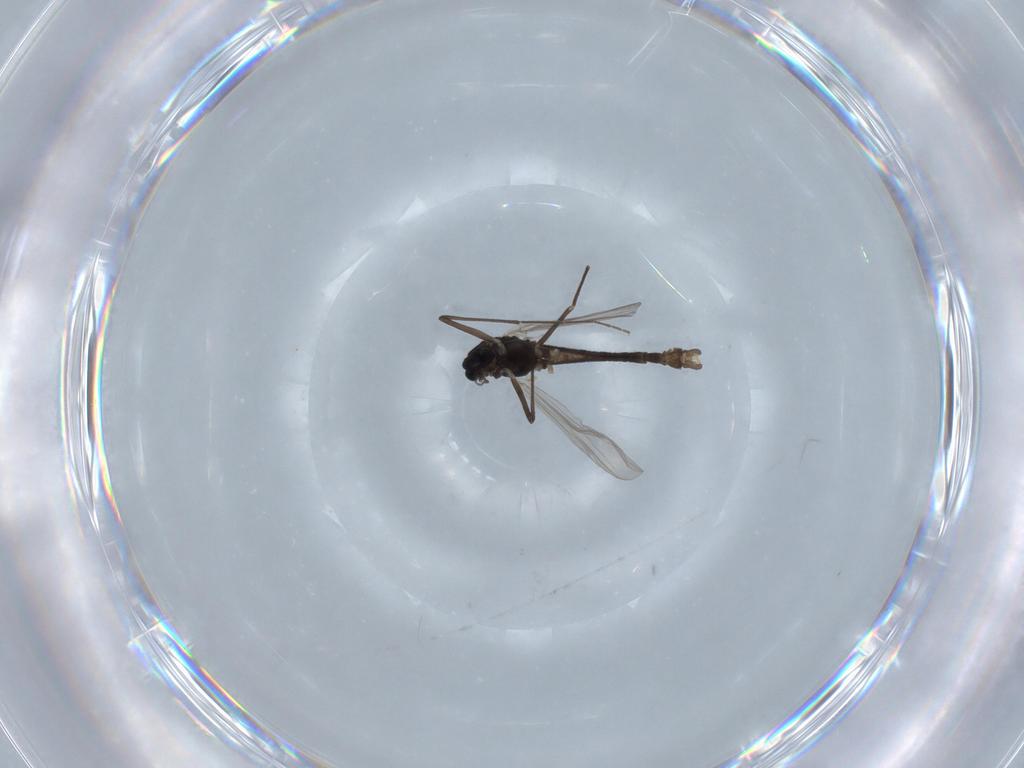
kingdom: Animalia
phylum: Arthropoda
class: Insecta
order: Diptera
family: Chironomidae
